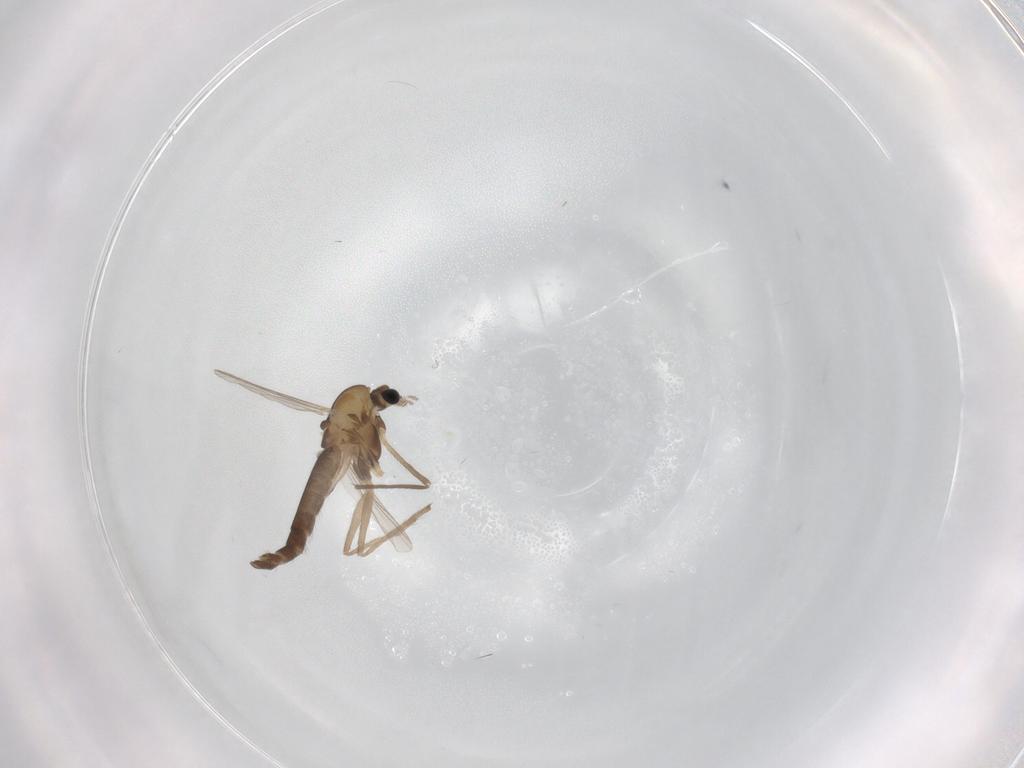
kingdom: Animalia
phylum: Arthropoda
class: Insecta
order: Diptera
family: Chironomidae
